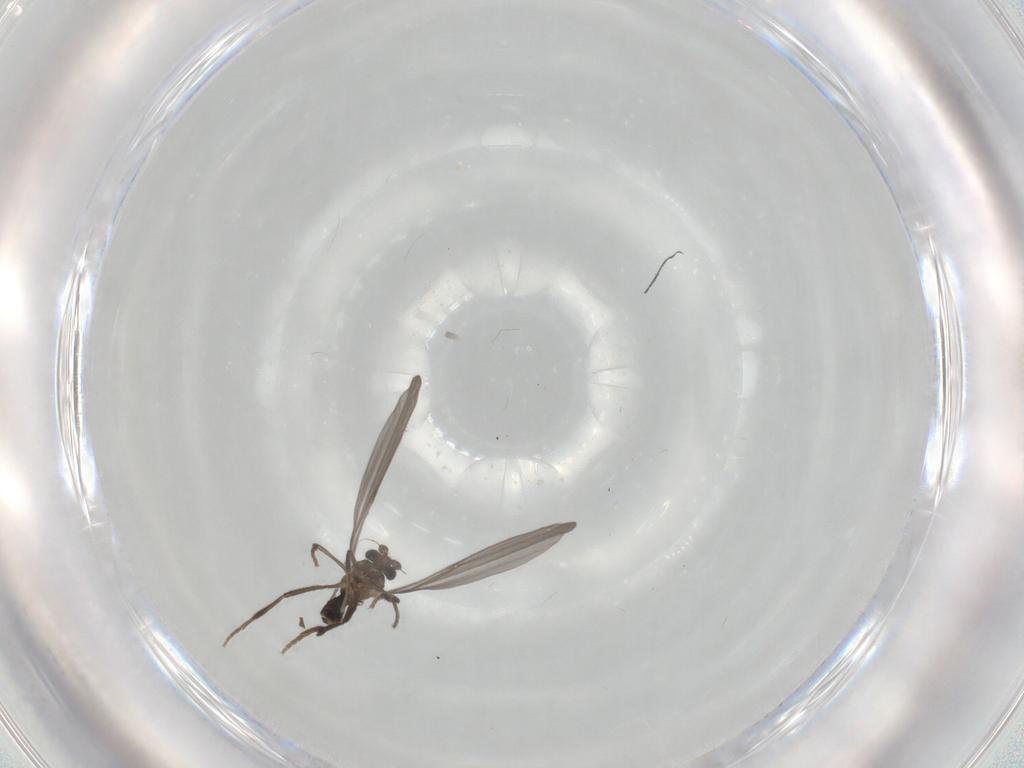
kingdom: Animalia
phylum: Arthropoda
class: Insecta
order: Diptera
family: Phoridae
